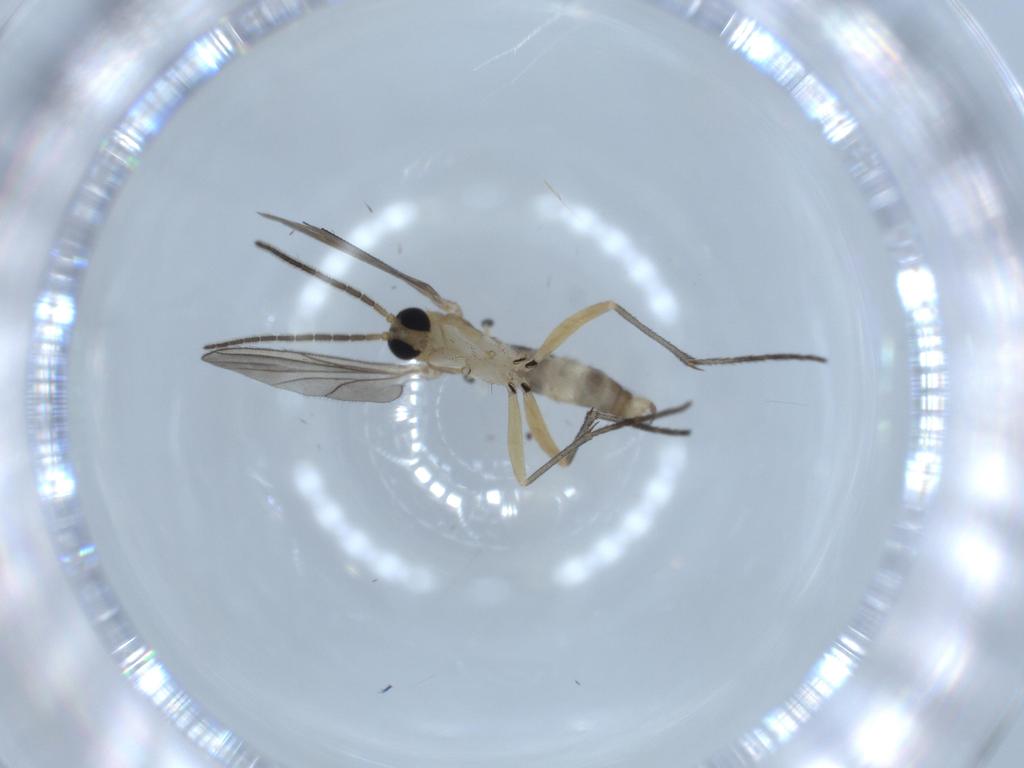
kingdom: Animalia
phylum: Arthropoda
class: Insecta
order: Diptera
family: Sciaridae
